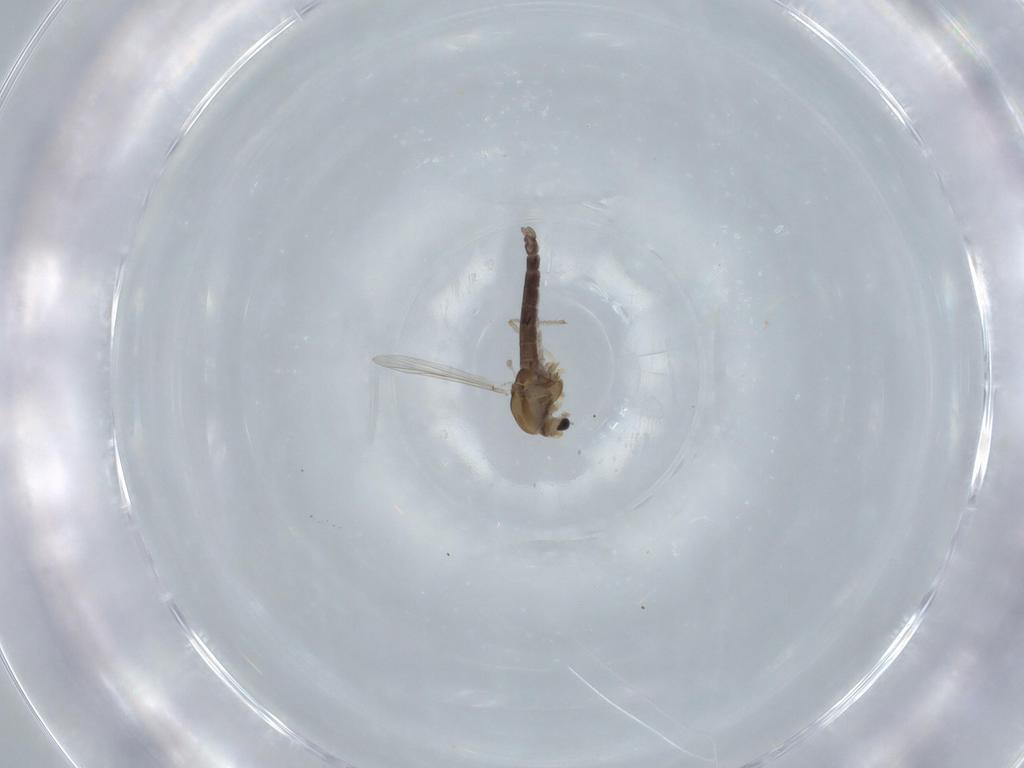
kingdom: Animalia
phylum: Arthropoda
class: Insecta
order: Diptera
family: Chironomidae
